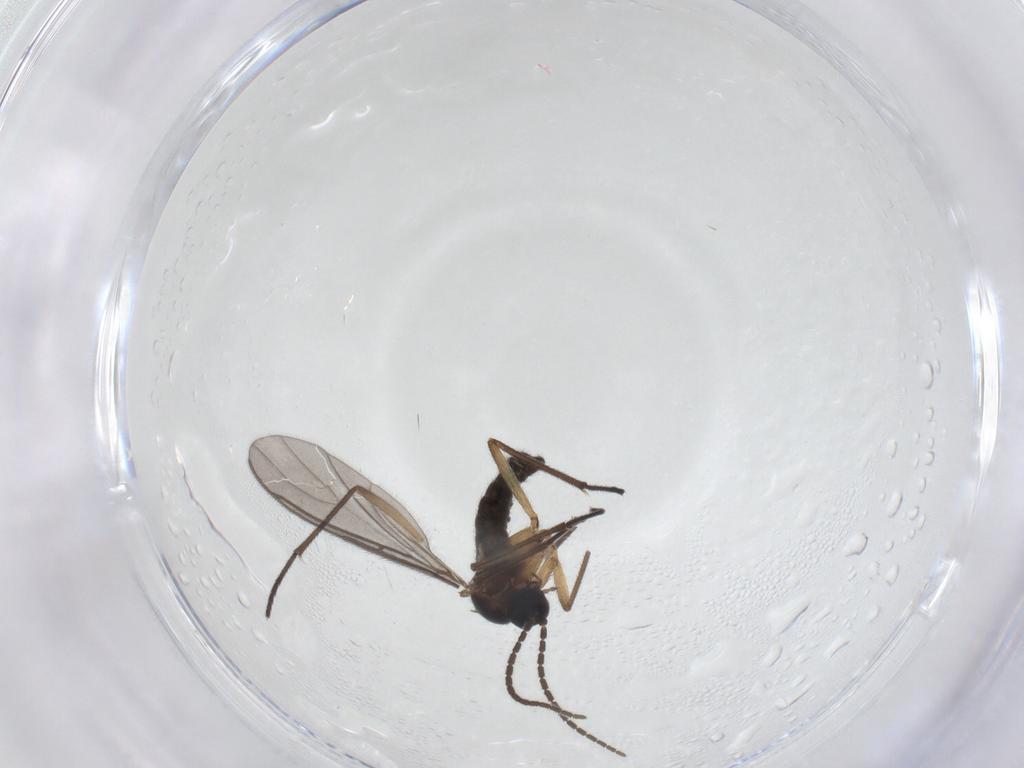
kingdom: Animalia
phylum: Arthropoda
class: Insecta
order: Diptera
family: Sciaridae
